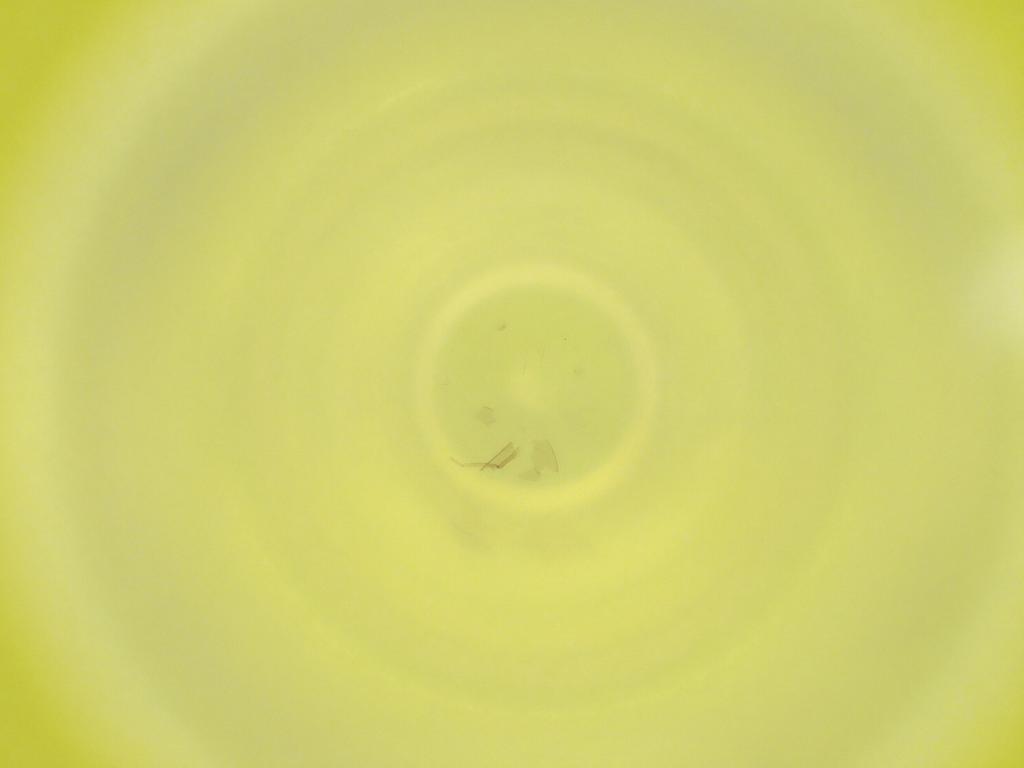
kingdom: Animalia
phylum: Arthropoda
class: Insecta
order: Diptera
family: Cecidomyiidae
